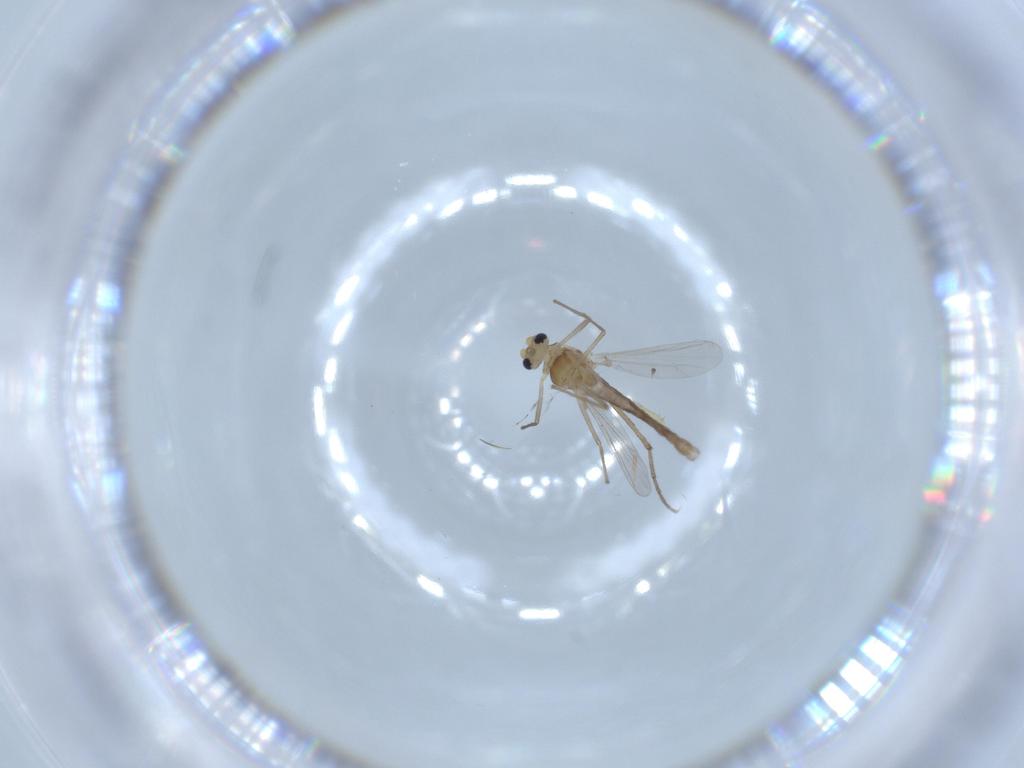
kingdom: Animalia
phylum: Arthropoda
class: Insecta
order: Diptera
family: Chironomidae
